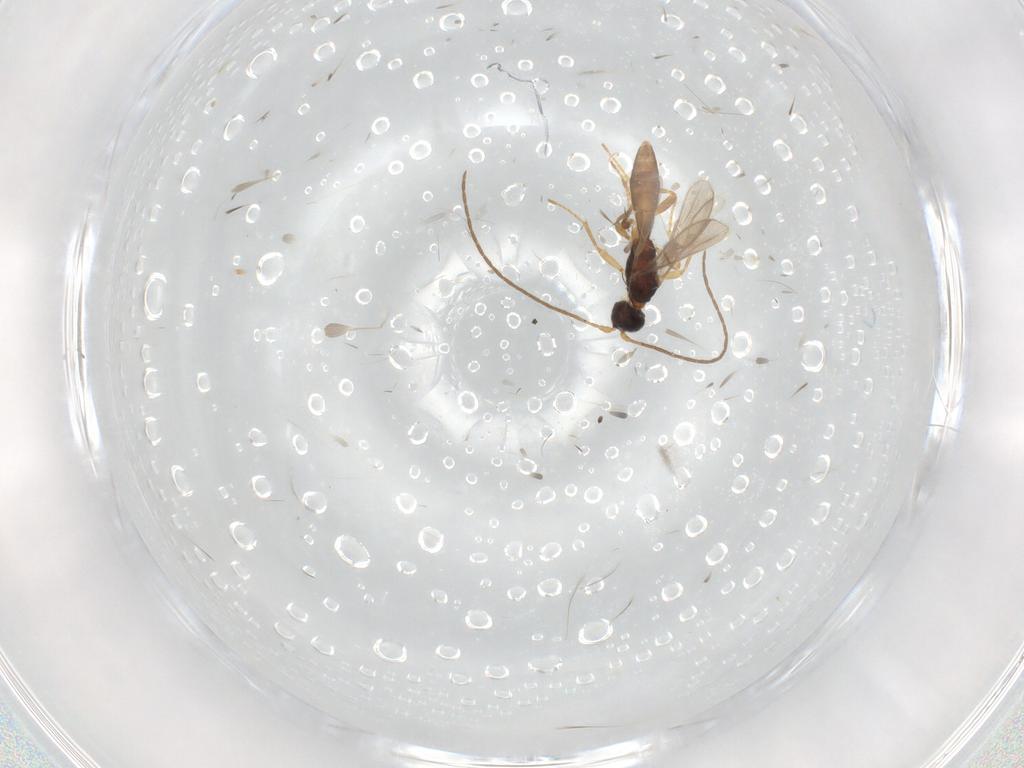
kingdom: Animalia
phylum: Arthropoda
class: Insecta
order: Hymenoptera
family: Braconidae
